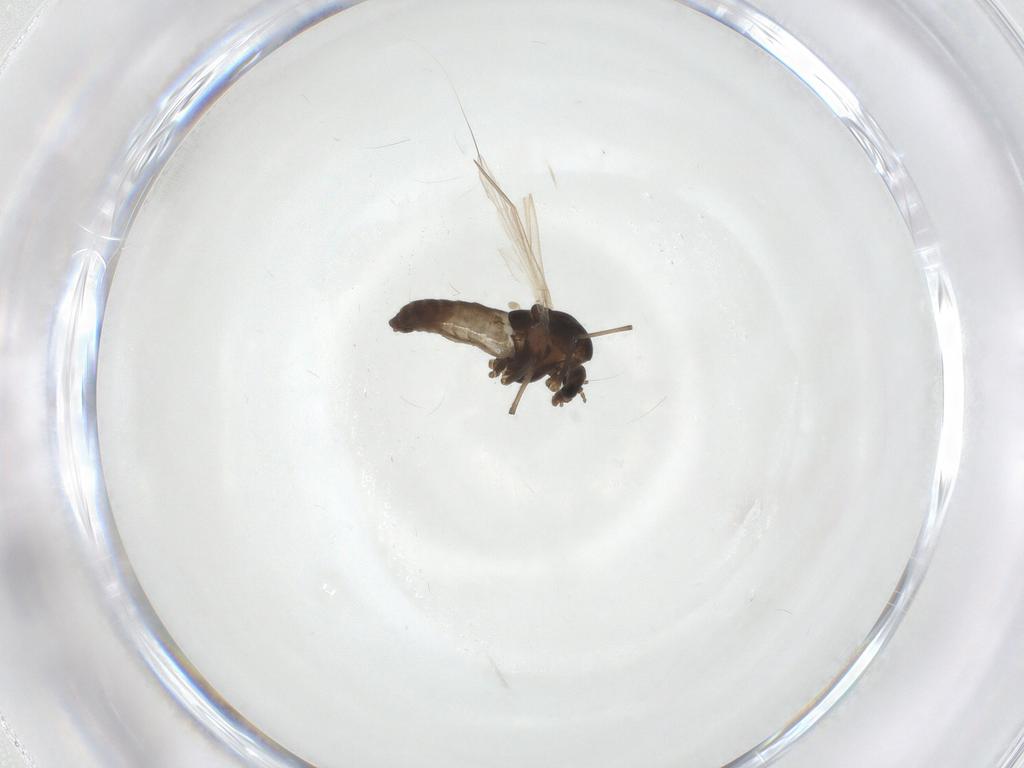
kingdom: Animalia
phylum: Arthropoda
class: Insecta
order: Diptera
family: Chironomidae
